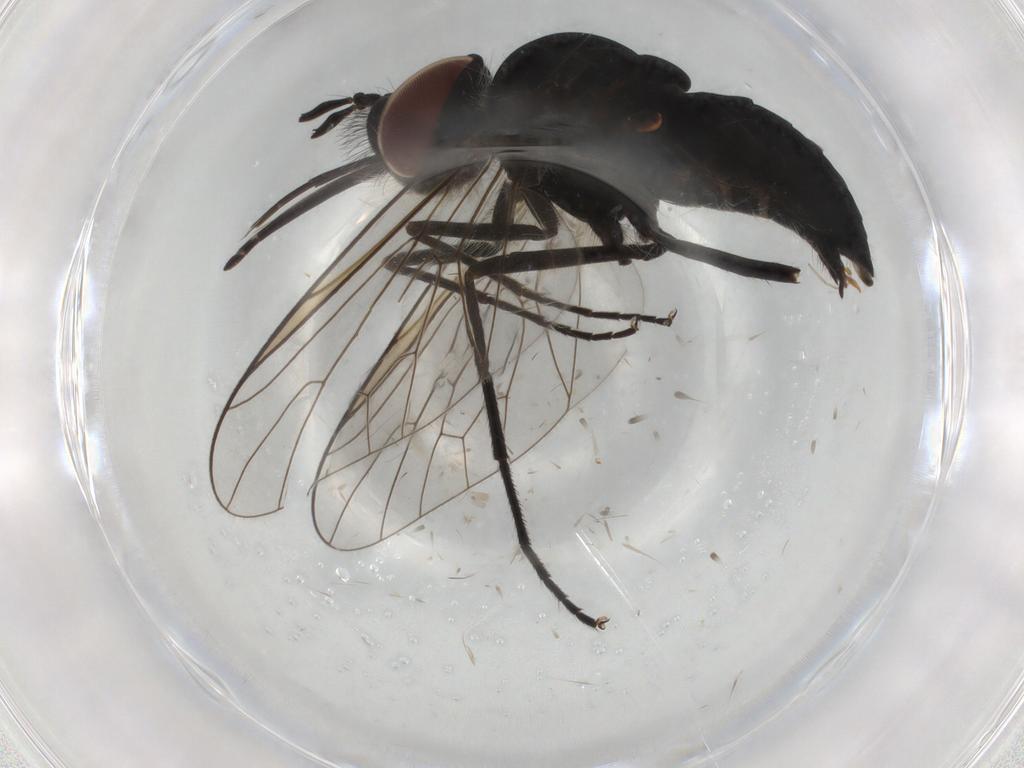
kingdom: Animalia
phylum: Arthropoda
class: Insecta
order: Diptera
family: Bombyliidae
